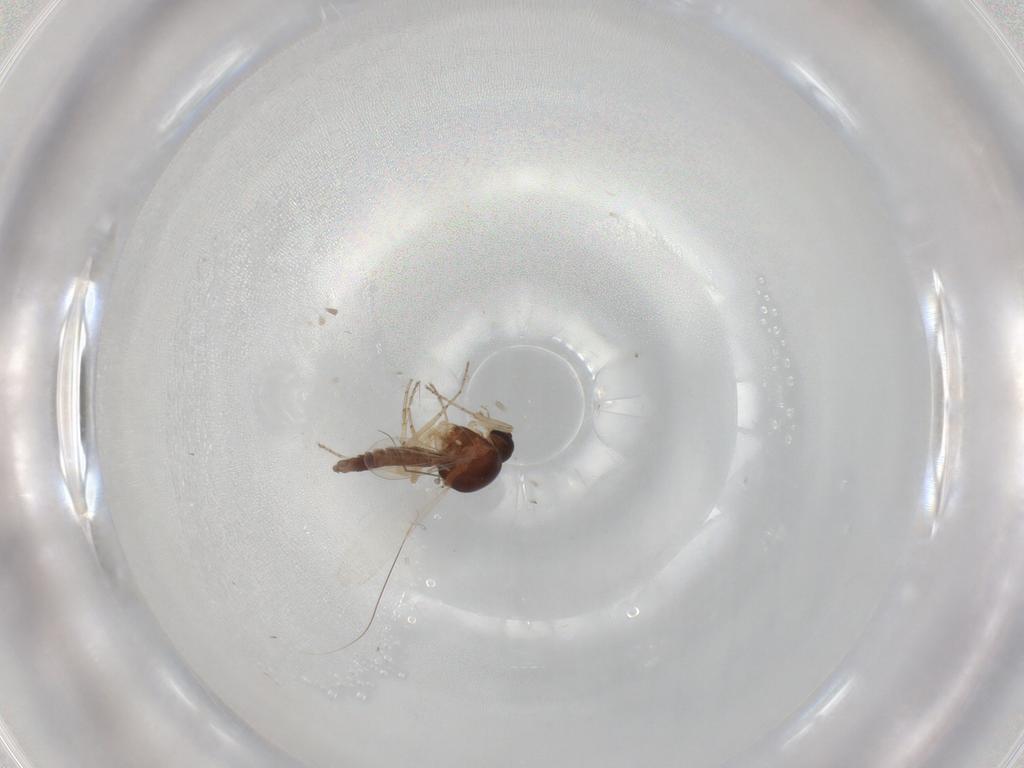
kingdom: Animalia
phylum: Arthropoda
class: Insecta
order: Diptera
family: Ceratopogonidae
